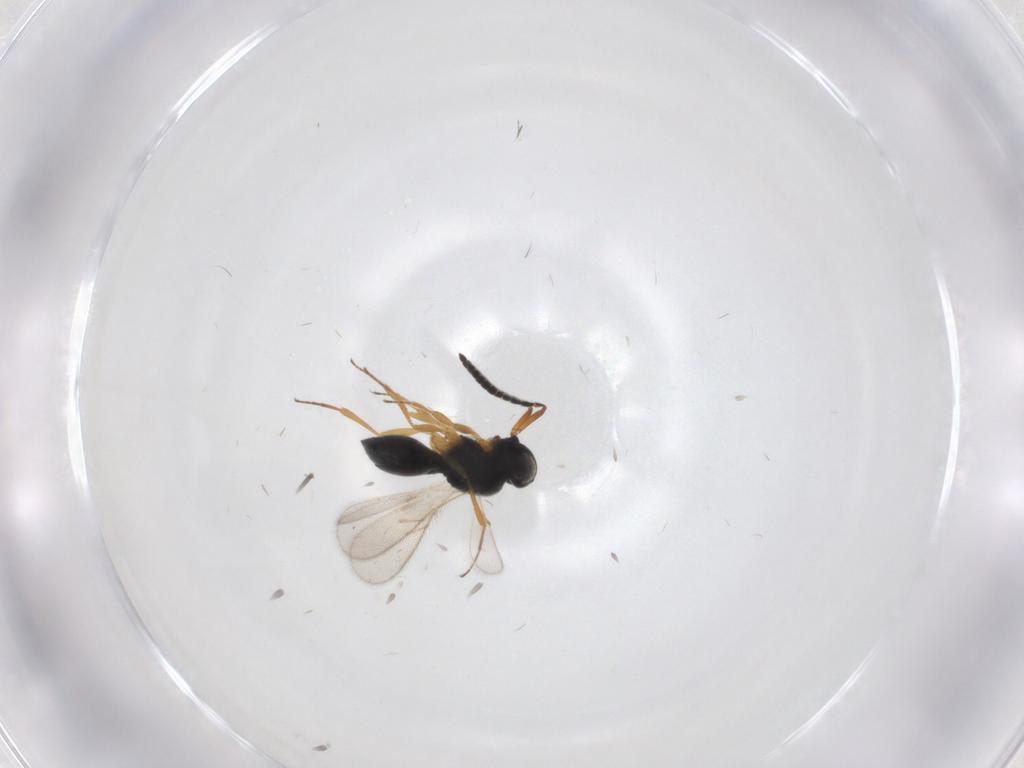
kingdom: Animalia
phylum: Arthropoda
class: Insecta
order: Hymenoptera
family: Scelionidae
